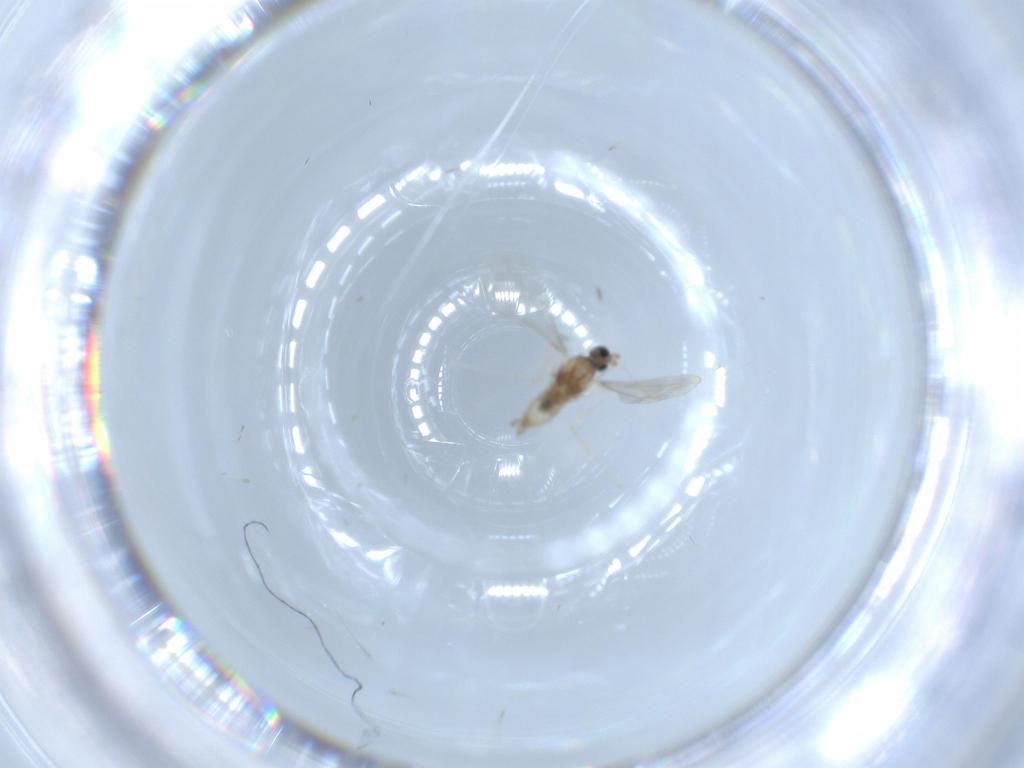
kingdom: Animalia
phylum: Arthropoda
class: Insecta
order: Diptera
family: Cecidomyiidae
